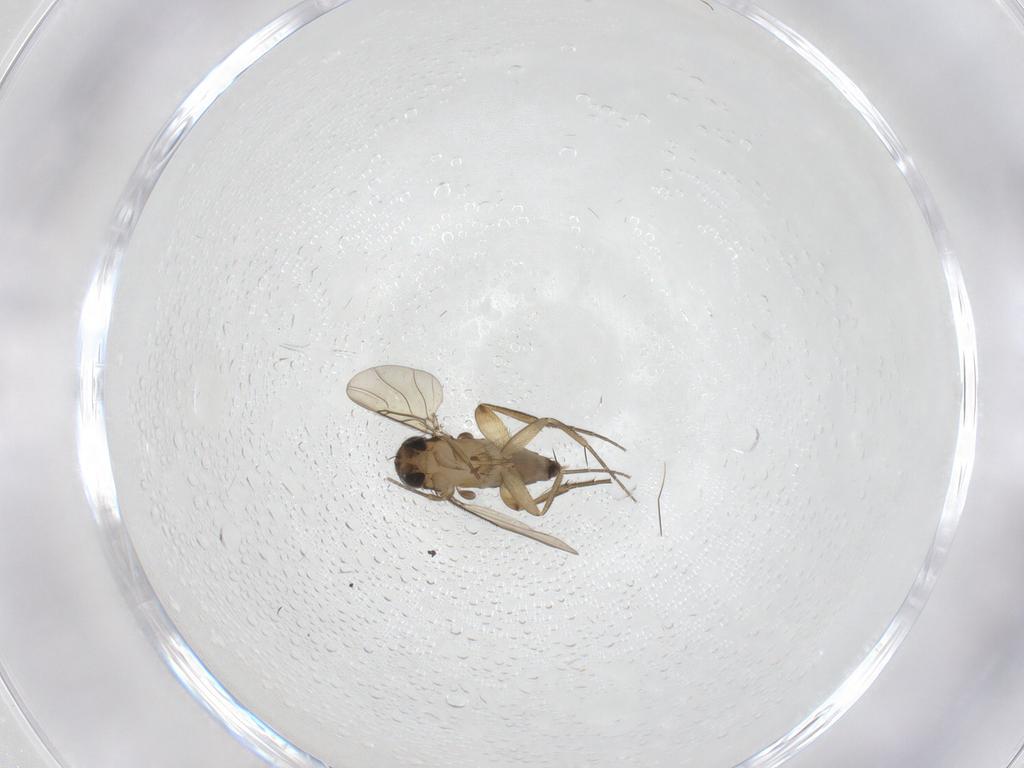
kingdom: Animalia
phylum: Arthropoda
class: Insecta
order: Diptera
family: Phoridae
